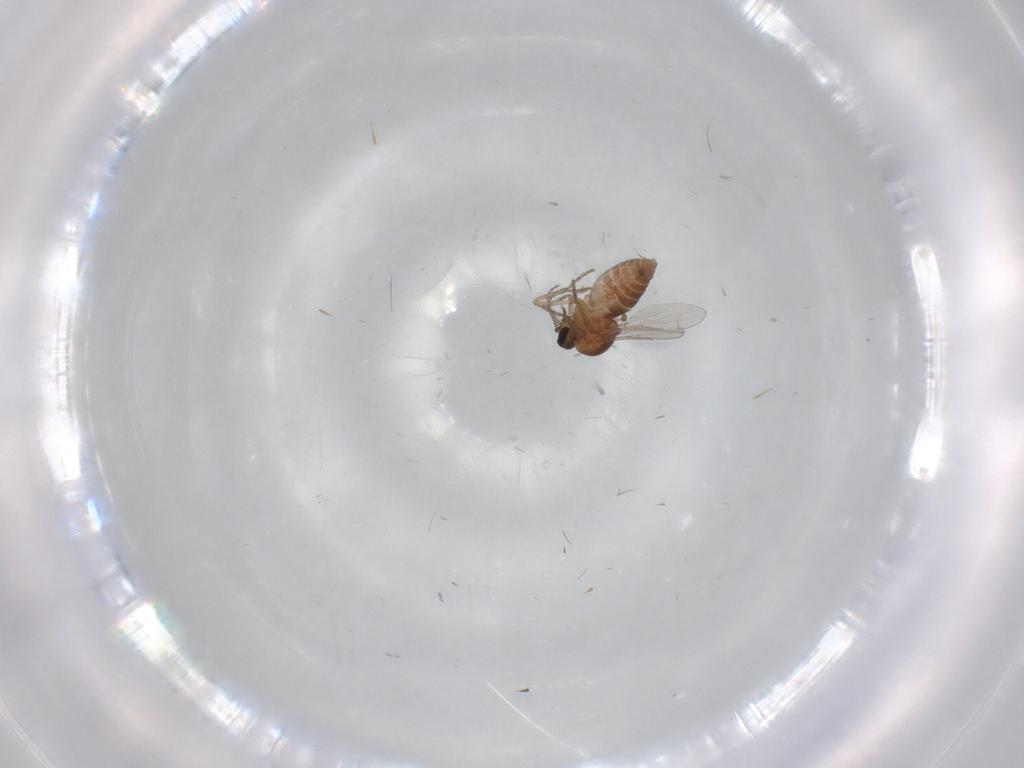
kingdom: Animalia
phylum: Arthropoda
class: Insecta
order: Diptera
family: Ceratopogonidae
